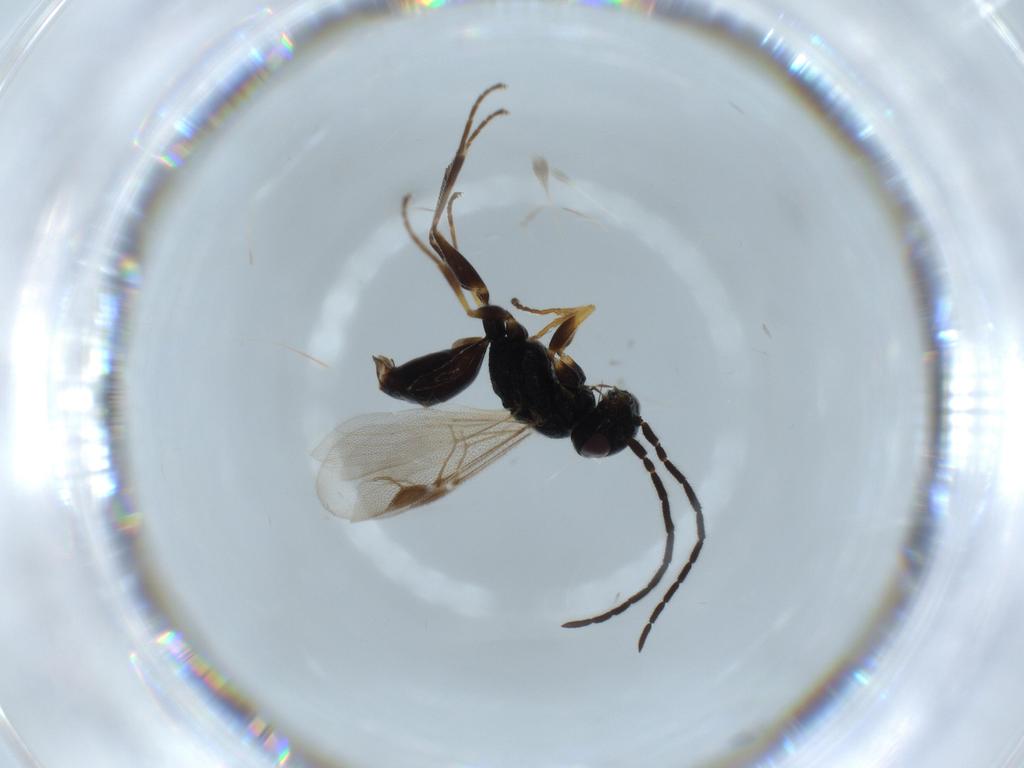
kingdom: Animalia
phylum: Arthropoda
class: Insecta
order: Hymenoptera
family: Dryinidae
